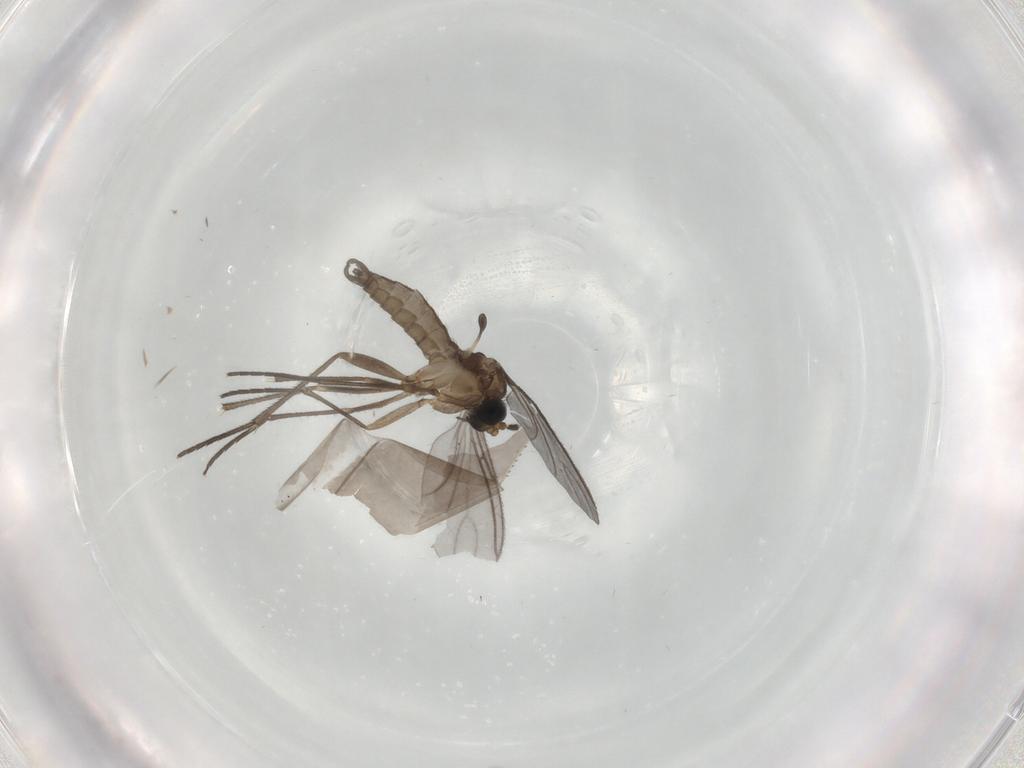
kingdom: Animalia
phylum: Arthropoda
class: Insecta
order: Diptera
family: Sciaridae
